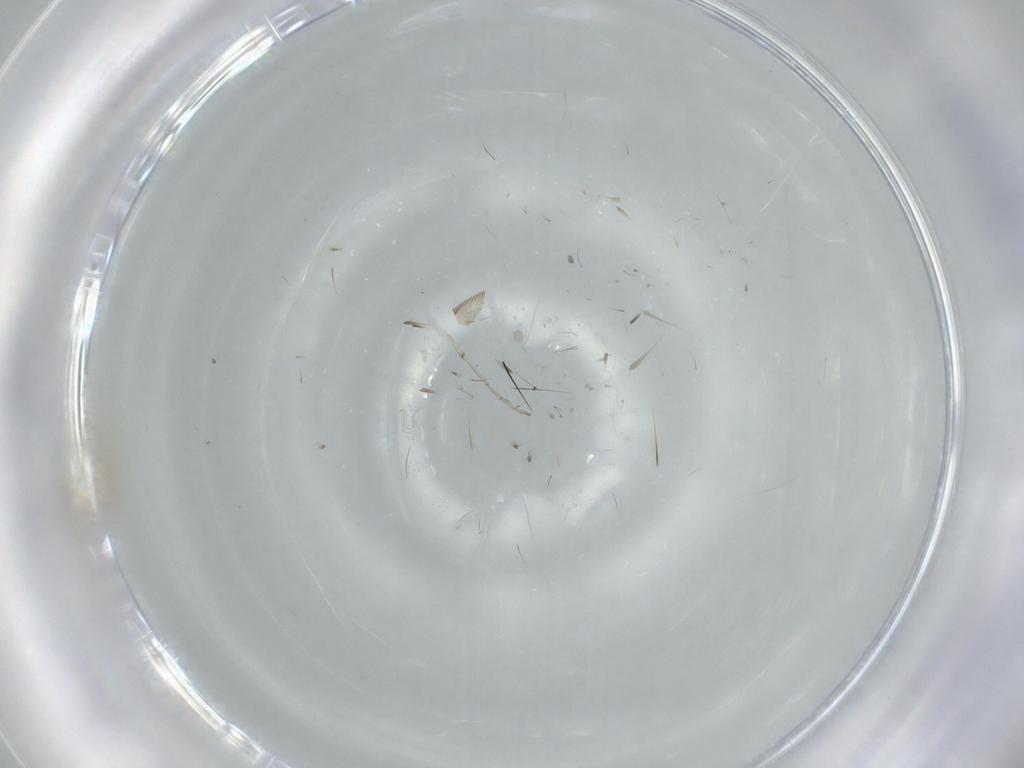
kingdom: Animalia
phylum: Arthropoda
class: Insecta
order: Diptera
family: Chironomidae
